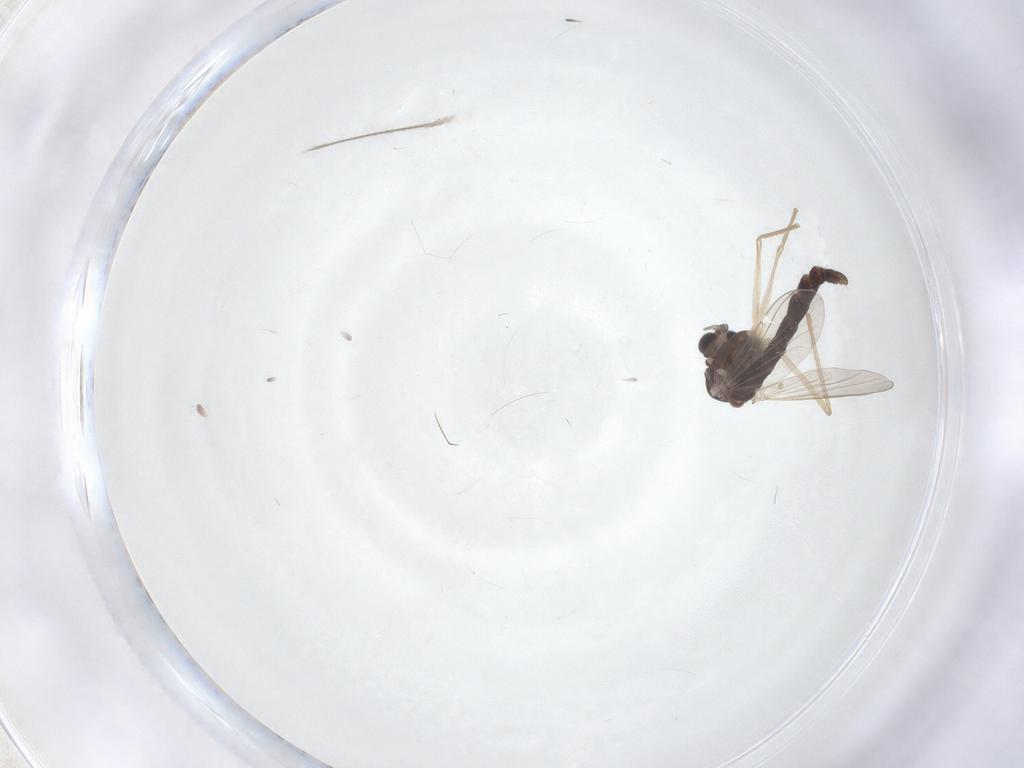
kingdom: Animalia
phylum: Arthropoda
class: Insecta
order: Diptera
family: Chironomidae
